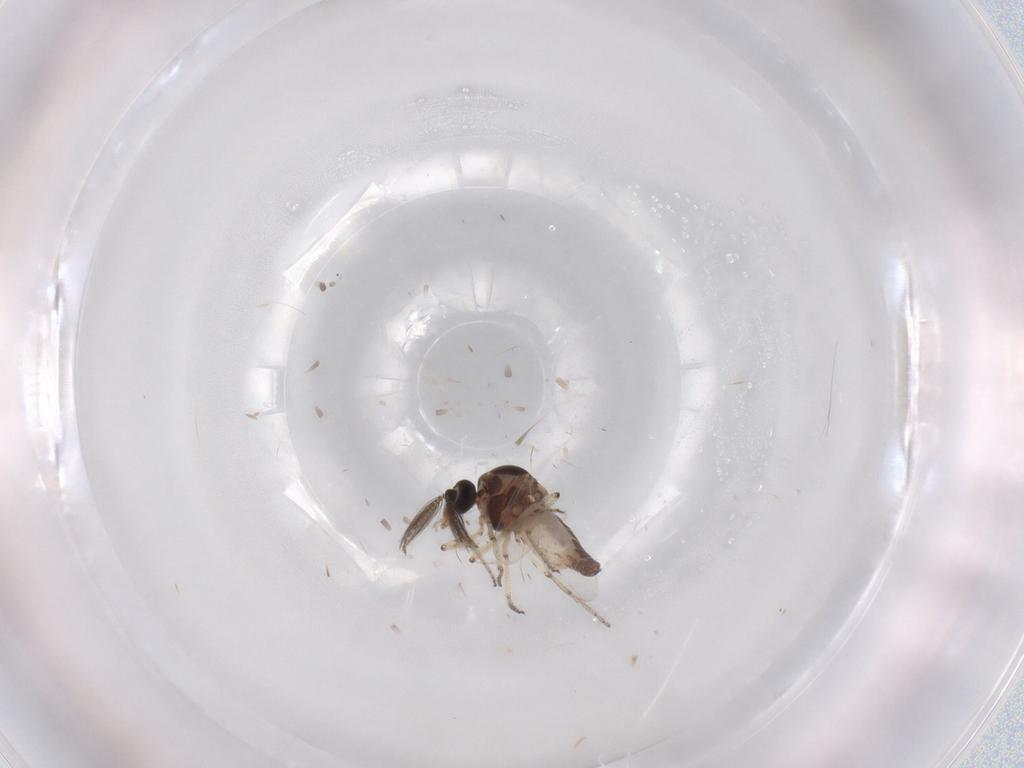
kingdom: Animalia
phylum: Arthropoda
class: Insecta
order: Diptera
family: Ceratopogonidae
